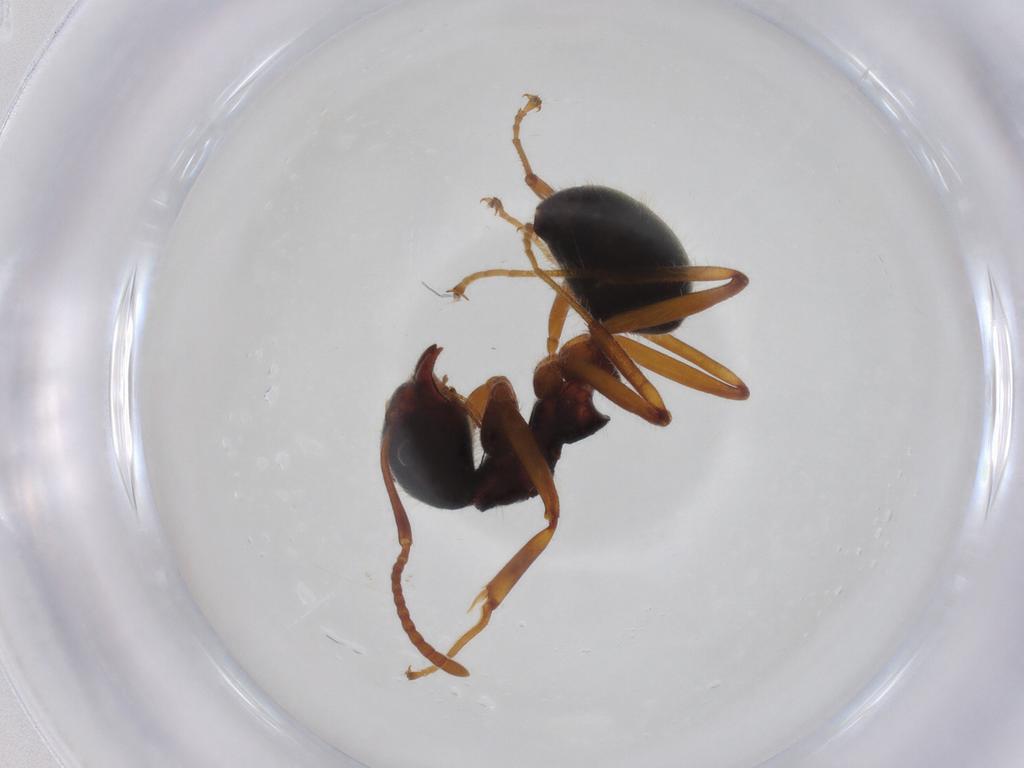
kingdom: Animalia
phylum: Arthropoda
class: Insecta
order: Hymenoptera
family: Formicidae
